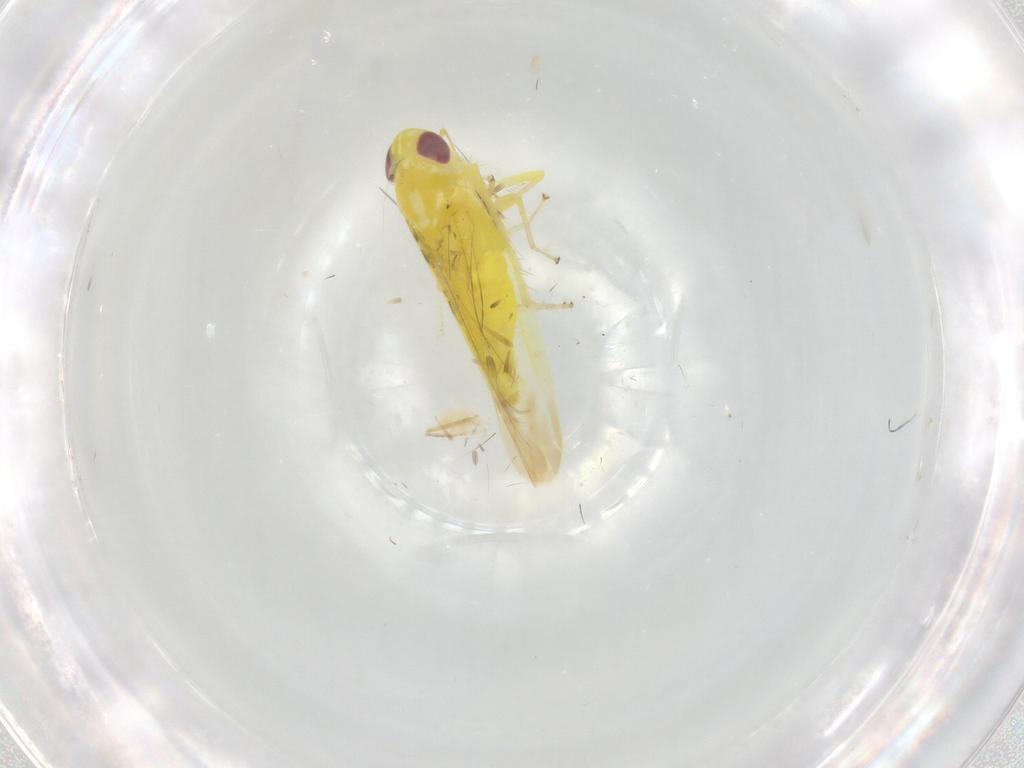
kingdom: Animalia
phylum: Arthropoda
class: Insecta
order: Hemiptera
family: Cicadellidae
